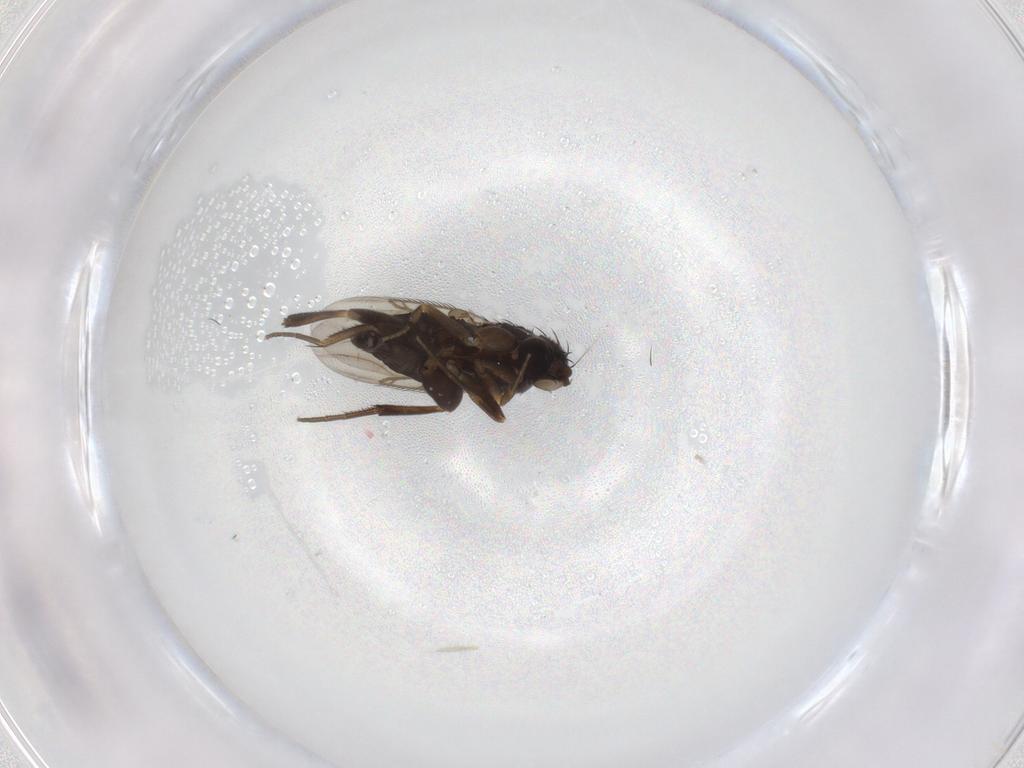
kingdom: Animalia
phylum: Arthropoda
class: Insecta
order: Diptera
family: Phoridae
